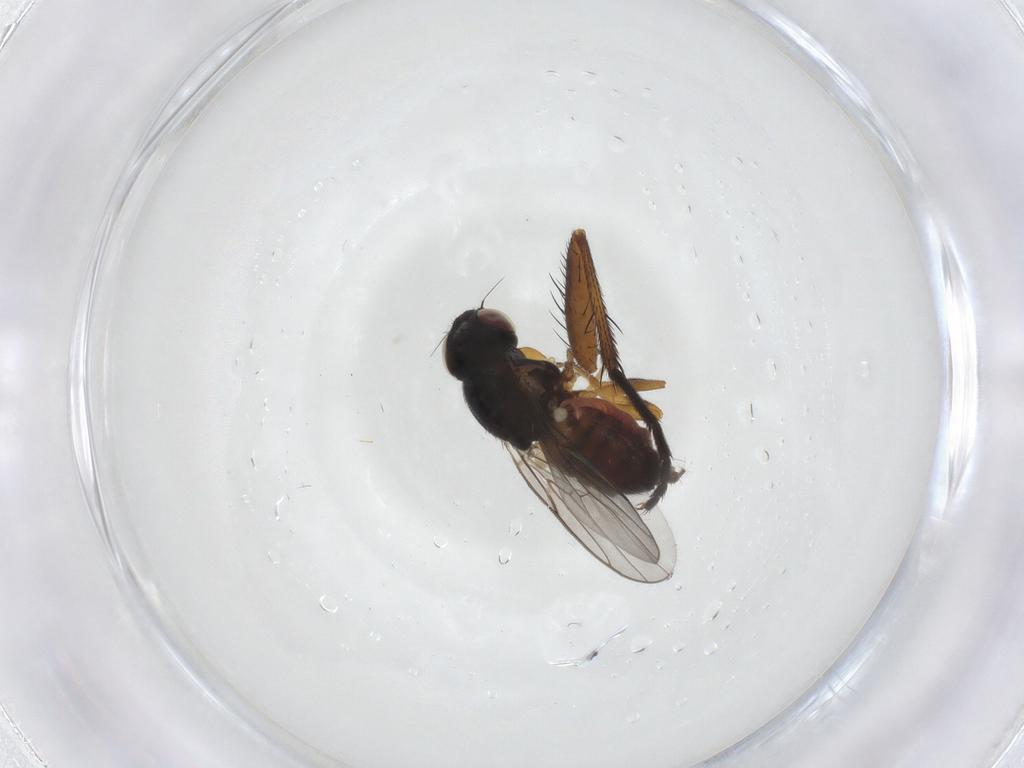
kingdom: Animalia
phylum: Arthropoda
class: Insecta
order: Diptera
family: Chloropidae
